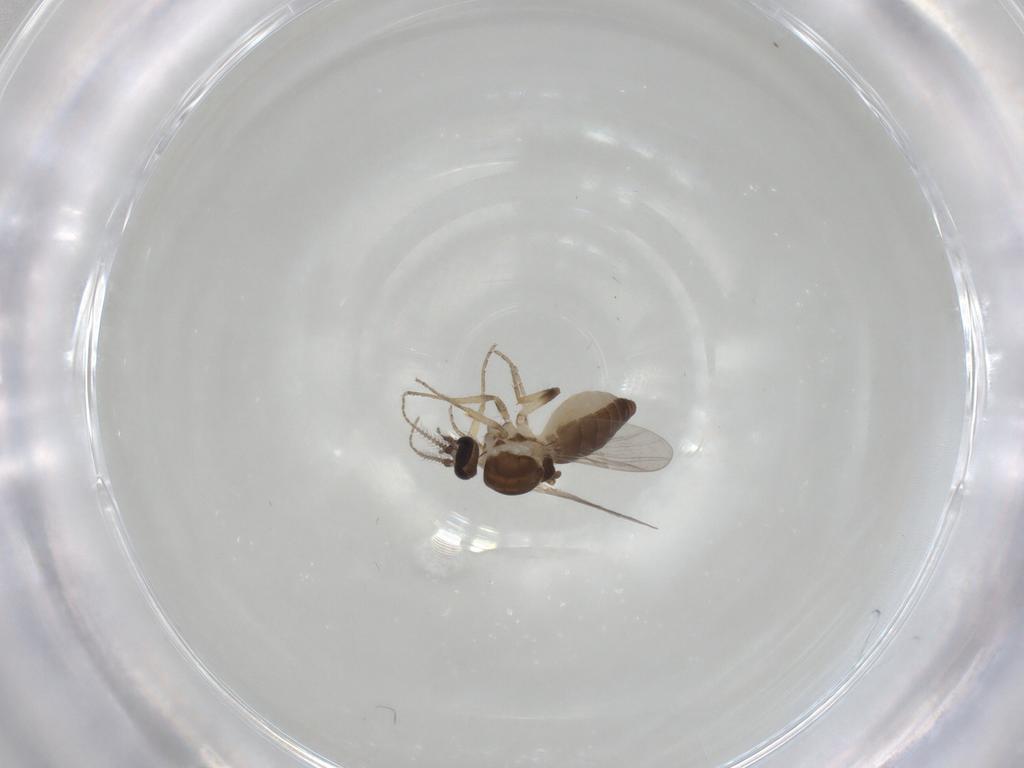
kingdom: Animalia
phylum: Arthropoda
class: Insecta
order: Diptera
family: Ceratopogonidae
